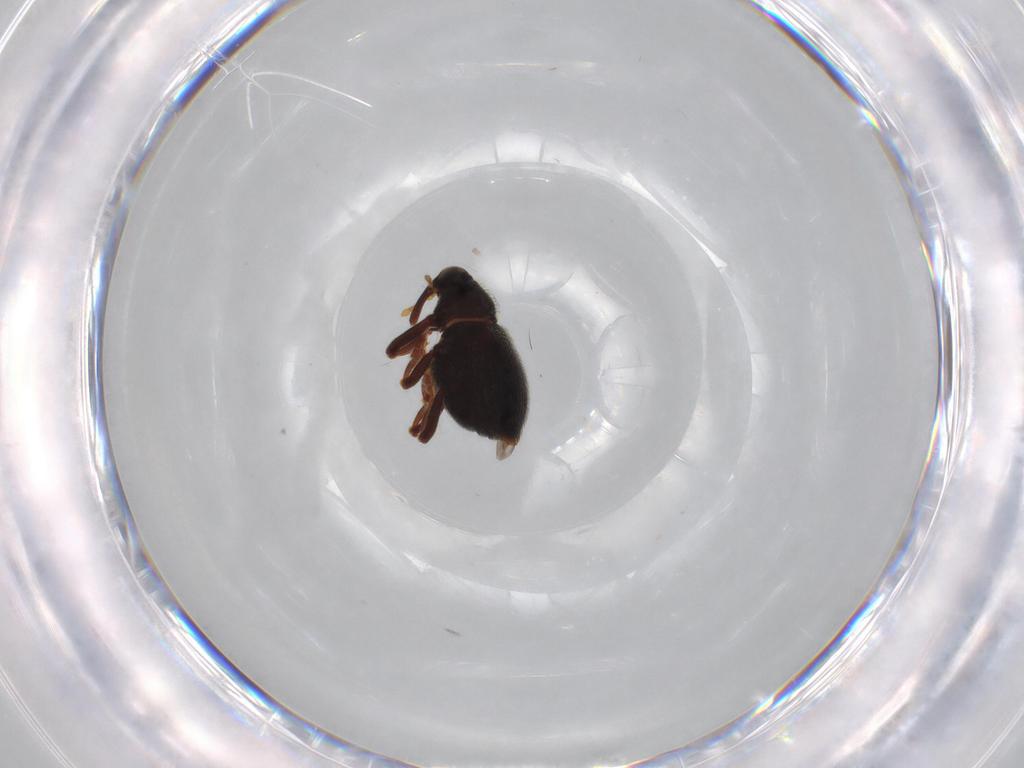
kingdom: Animalia
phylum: Arthropoda
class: Insecta
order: Coleoptera
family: Curculionidae
